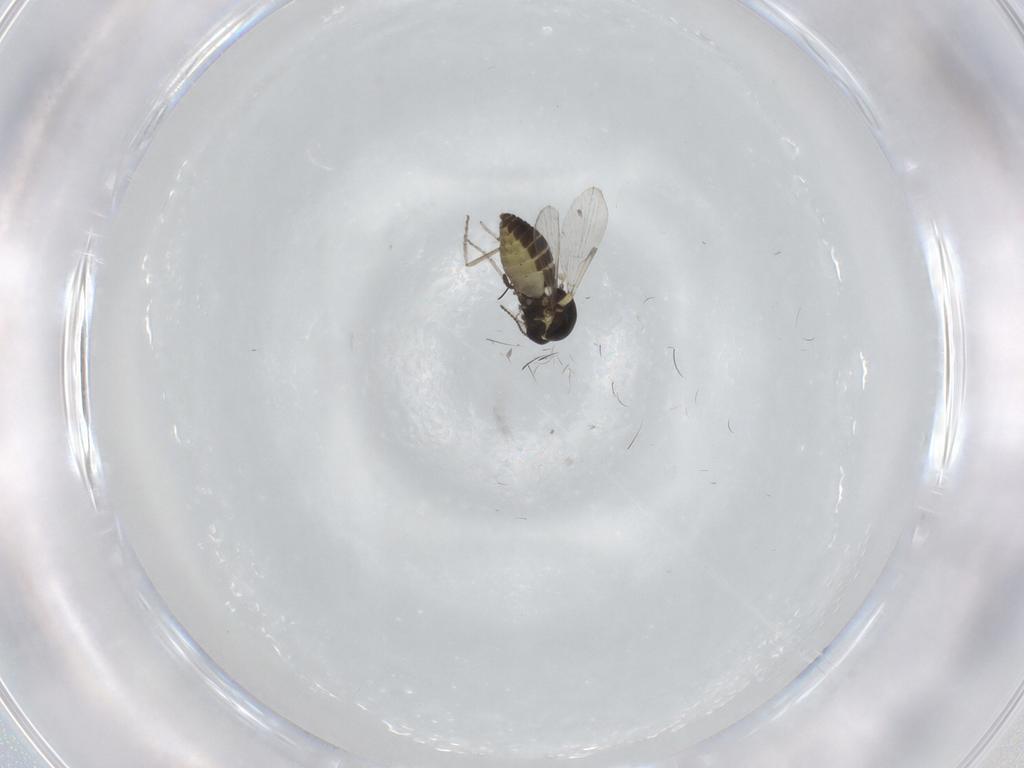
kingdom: Animalia
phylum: Arthropoda
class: Insecta
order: Diptera
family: Ceratopogonidae
